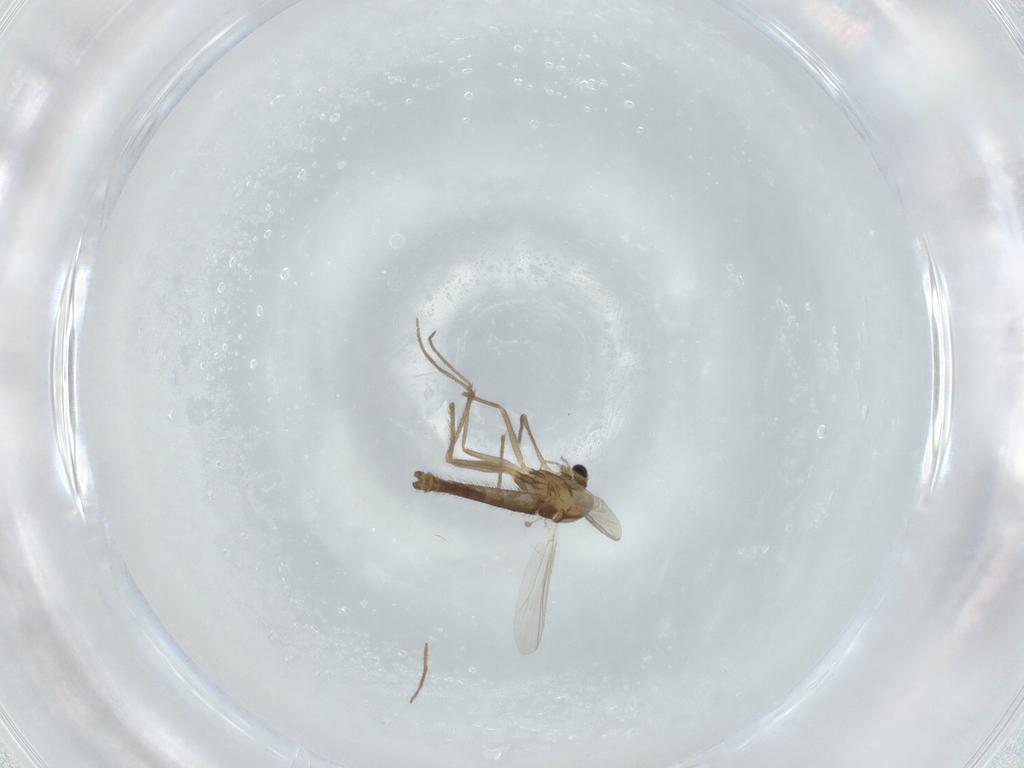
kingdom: Animalia
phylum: Arthropoda
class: Insecta
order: Diptera
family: Chironomidae
